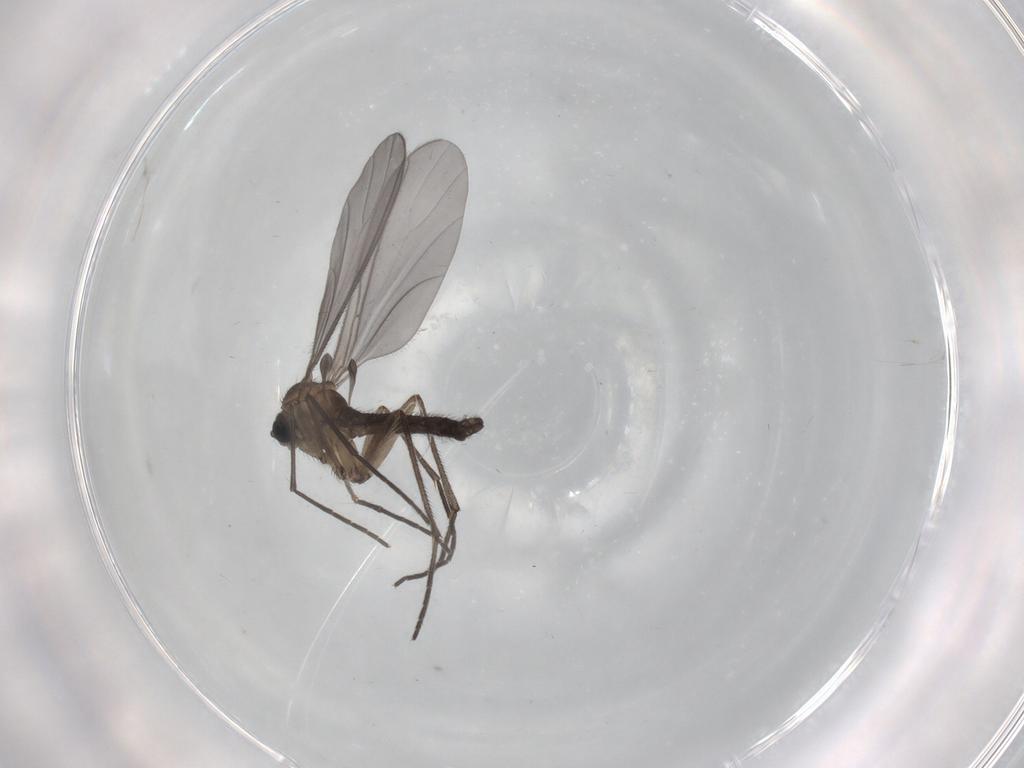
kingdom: Animalia
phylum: Arthropoda
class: Insecta
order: Diptera
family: Sciaridae
